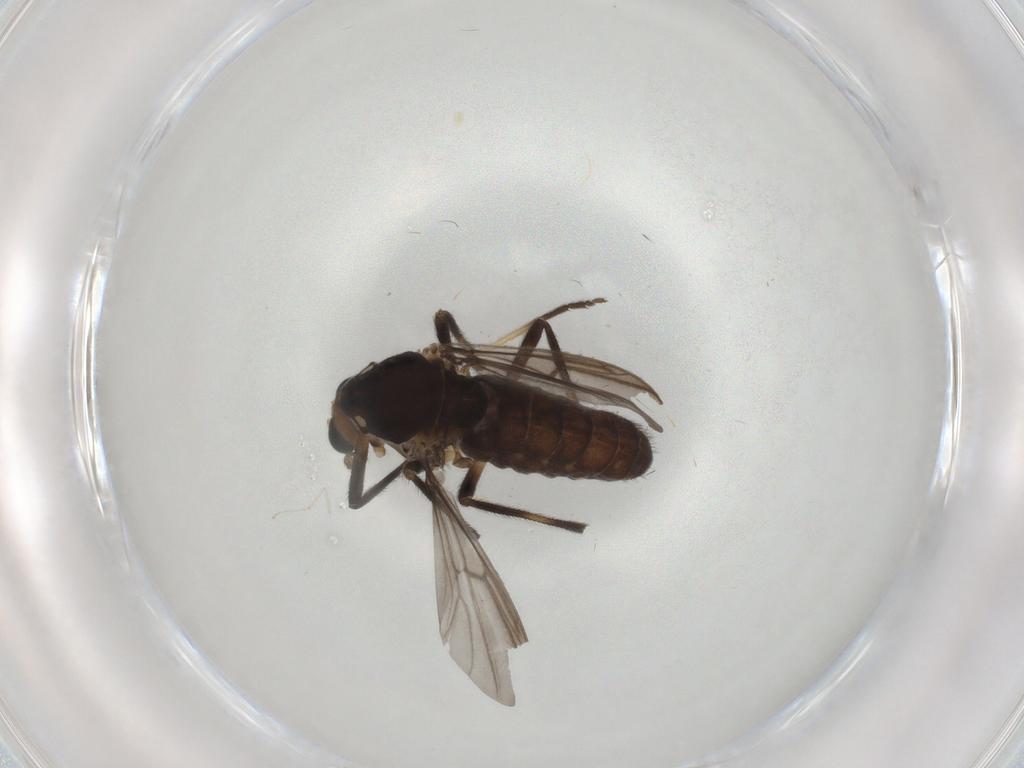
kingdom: Animalia
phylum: Arthropoda
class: Insecta
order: Diptera
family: Chironomidae
